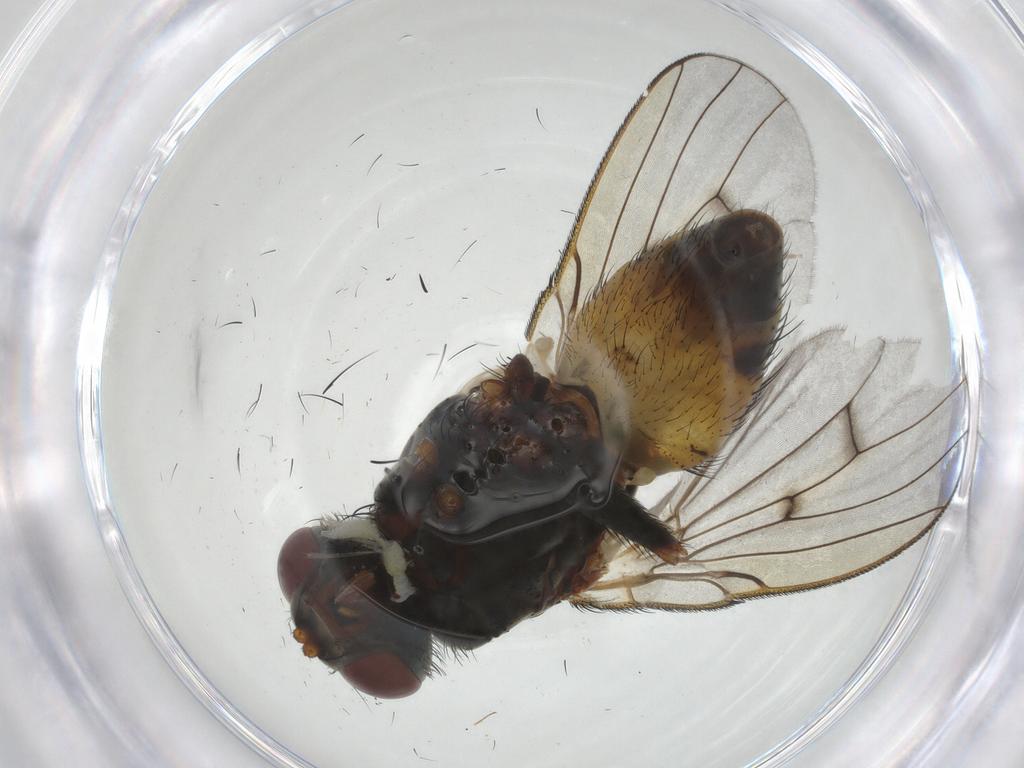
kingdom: Animalia
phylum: Arthropoda
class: Insecta
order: Diptera
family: Muscidae
